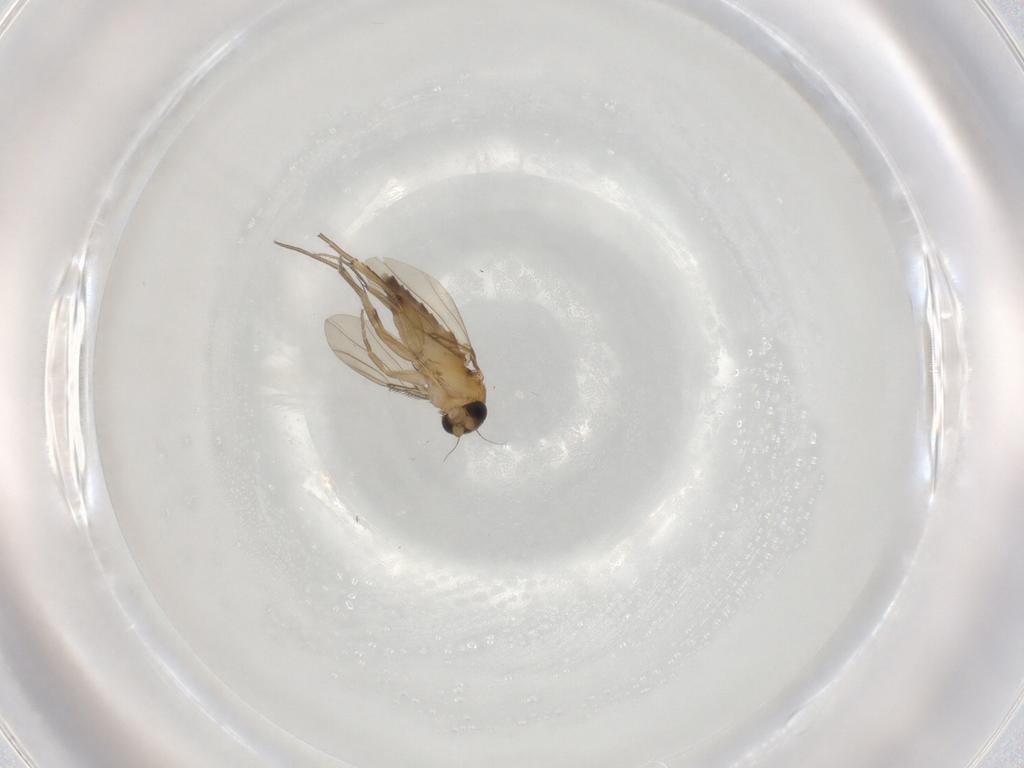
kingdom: Animalia
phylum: Arthropoda
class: Insecta
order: Diptera
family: Phoridae
